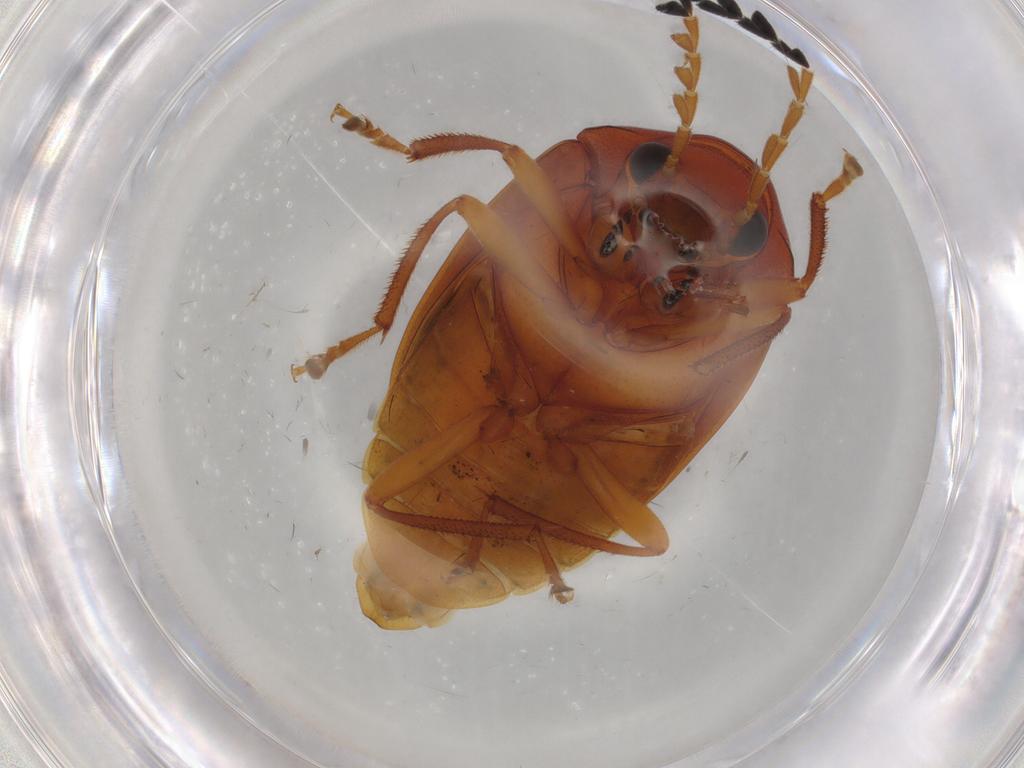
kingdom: Animalia
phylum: Arthropoda
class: Insecta
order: Coleoptera
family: Ptilodactylidae
